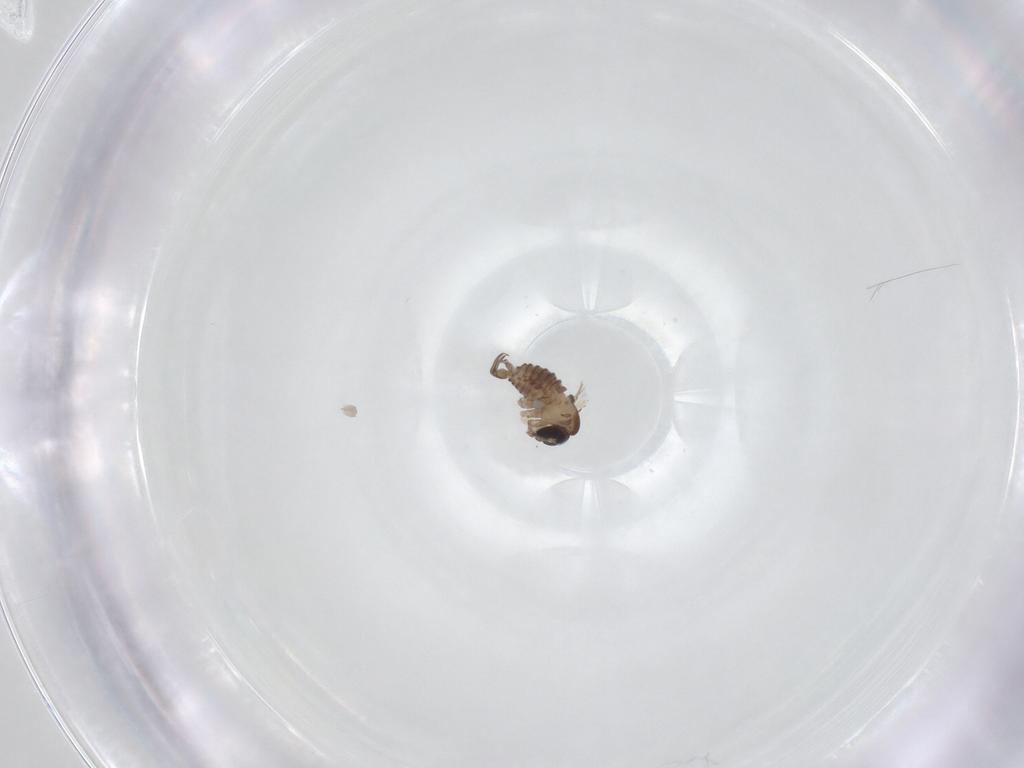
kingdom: Animalia
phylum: Arthropoda
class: Insecta
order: Diptera
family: Psychodidae
